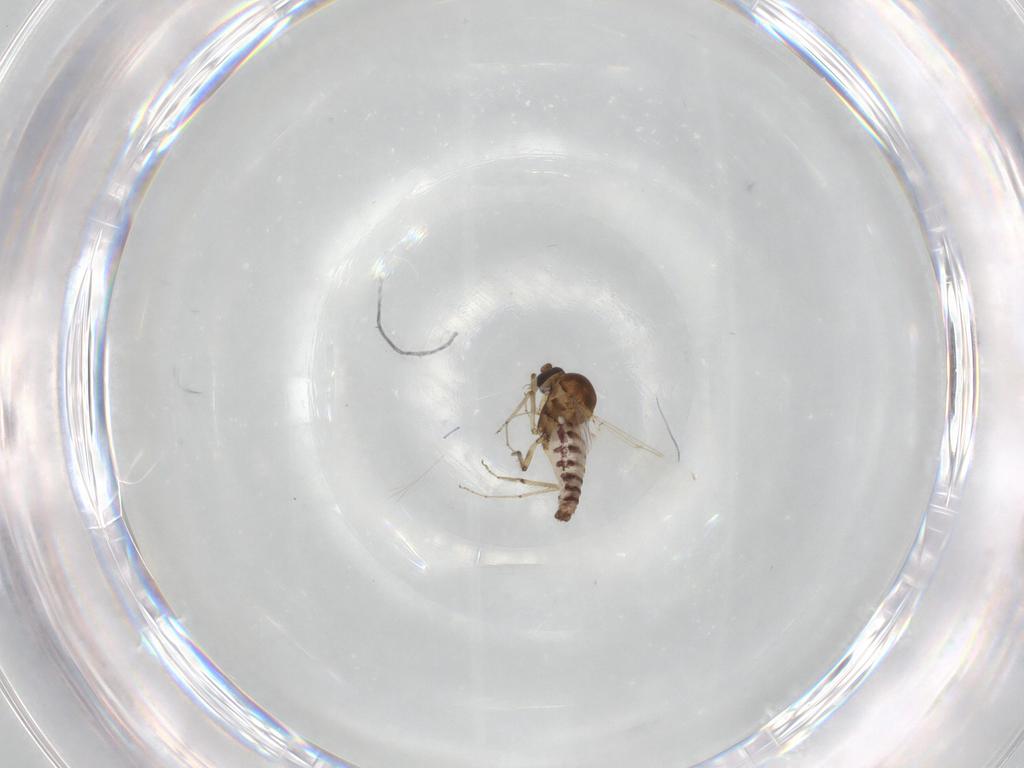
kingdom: Animalia
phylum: Arthropoda
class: Insecta
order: Diptera
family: Ceratopogonidae
